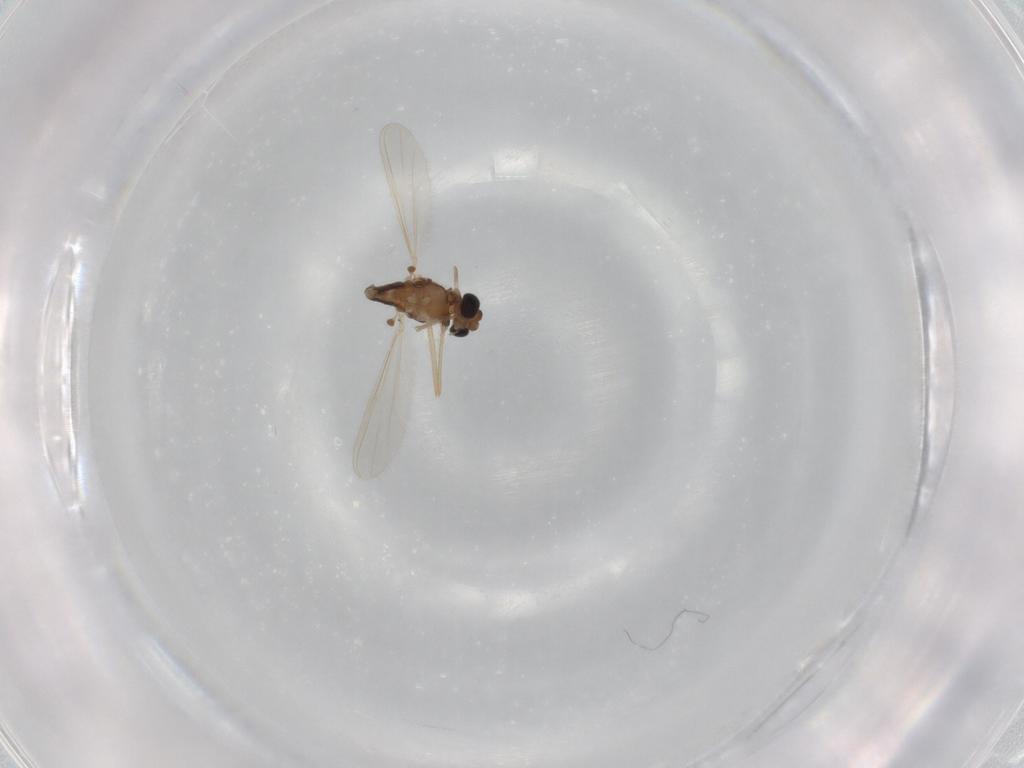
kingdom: Animalia
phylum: Arthropoda
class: Insecta
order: Diptera
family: Chironomidae
